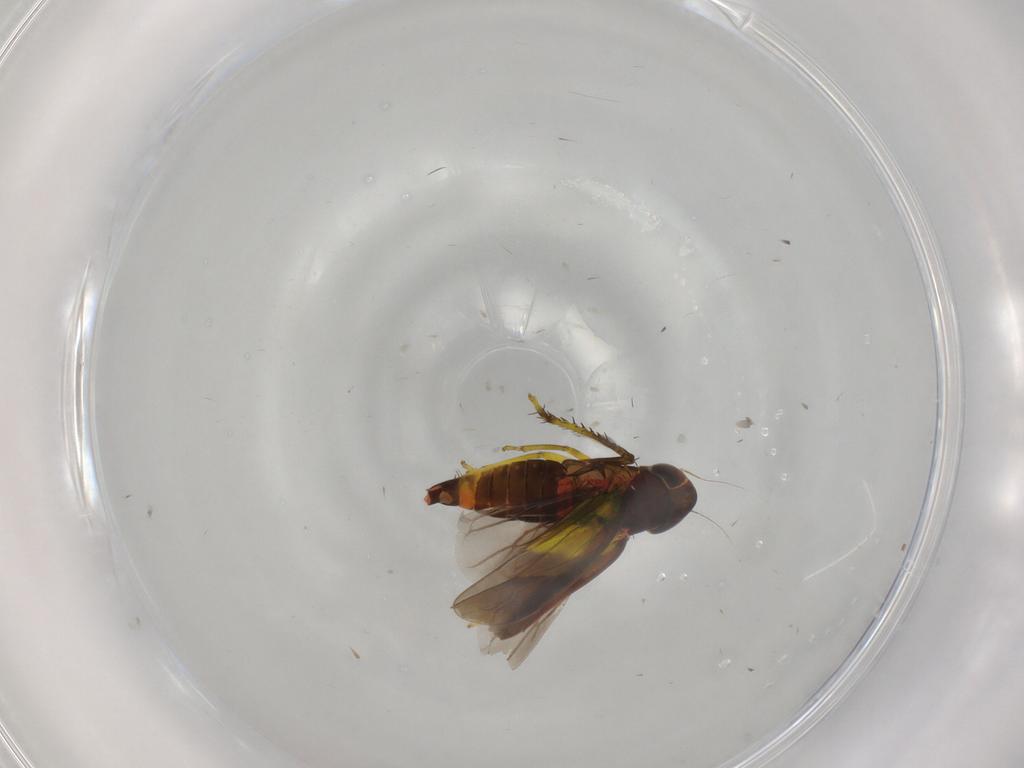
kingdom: Animalia
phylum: Arthropoda
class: Insecta
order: Hemiptera
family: Cicadellidae
